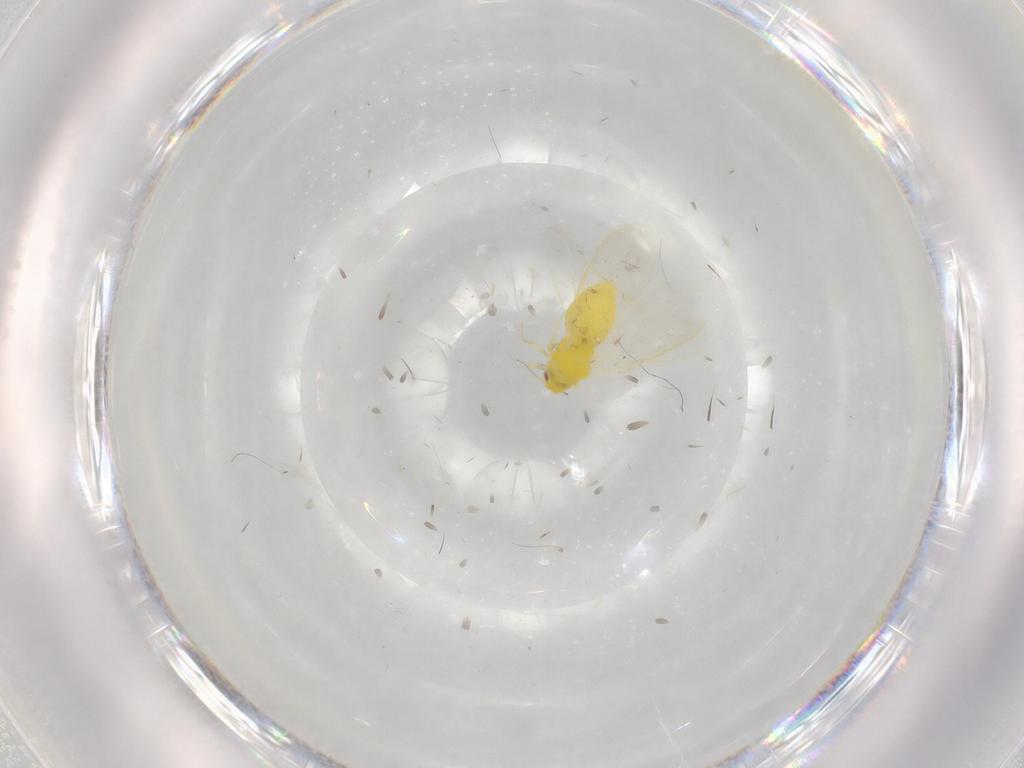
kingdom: Animalia
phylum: Arthropoda
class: Insecta
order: Hemiptera
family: Aleyrodidae
